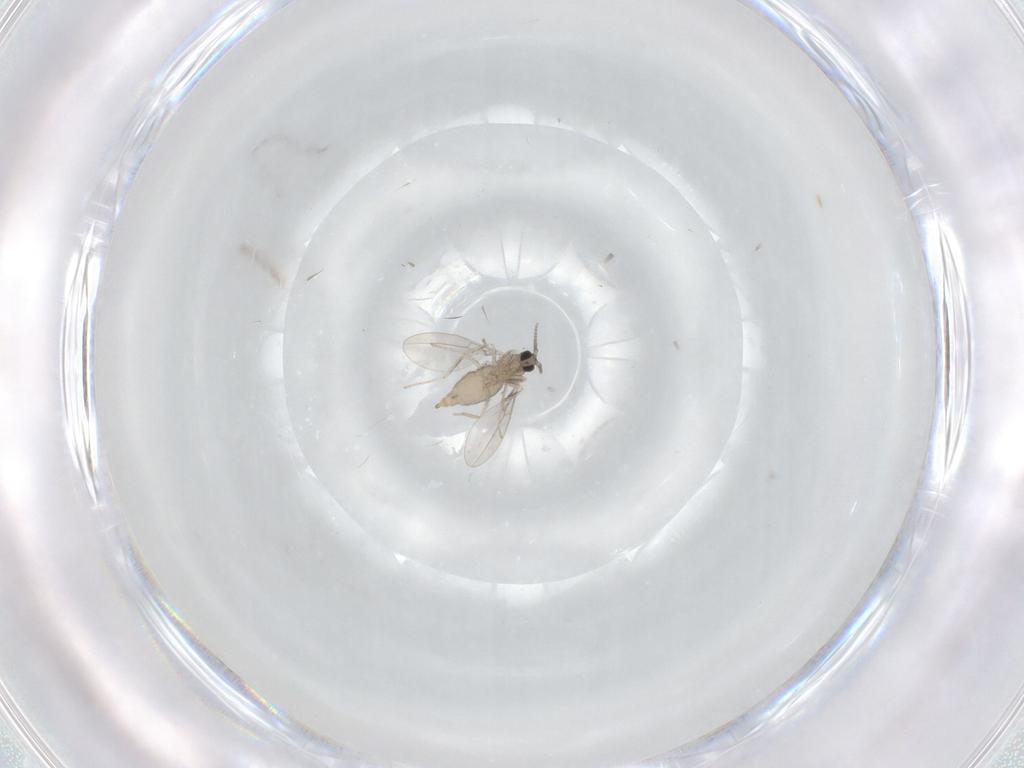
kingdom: Animalia
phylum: Arthropoda
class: Insecta
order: Diptera
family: Cecidomyiidae
